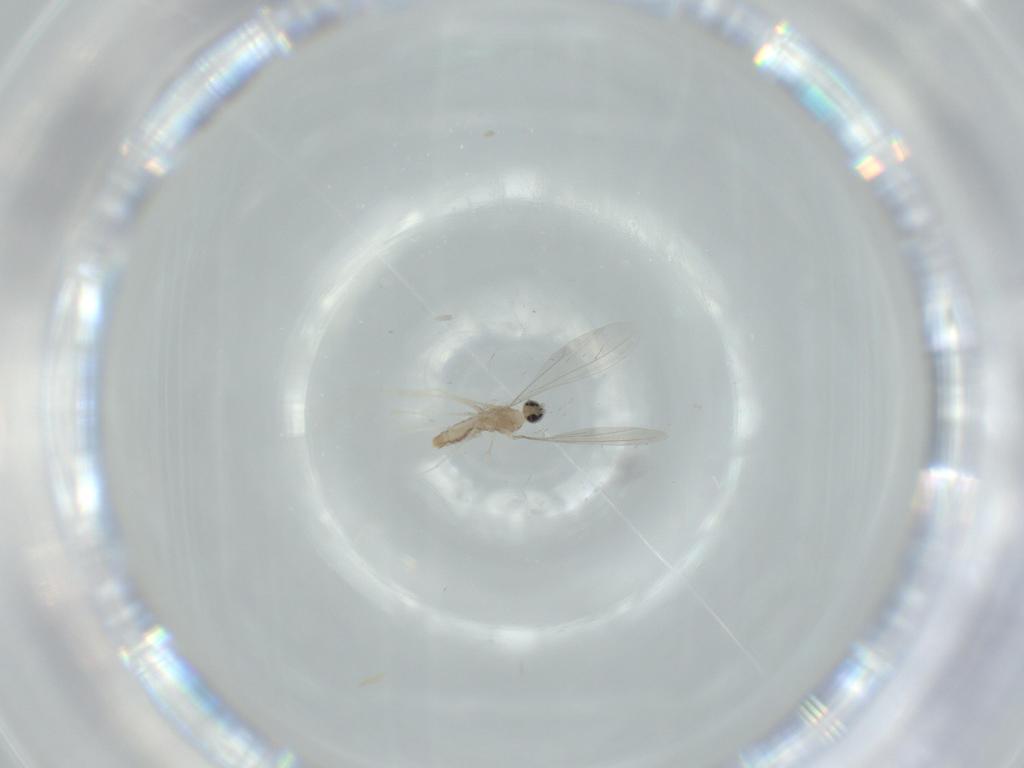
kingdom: Animalia
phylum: Arthropoda
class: Insecta
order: Diptera
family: Cecidomyiidae
